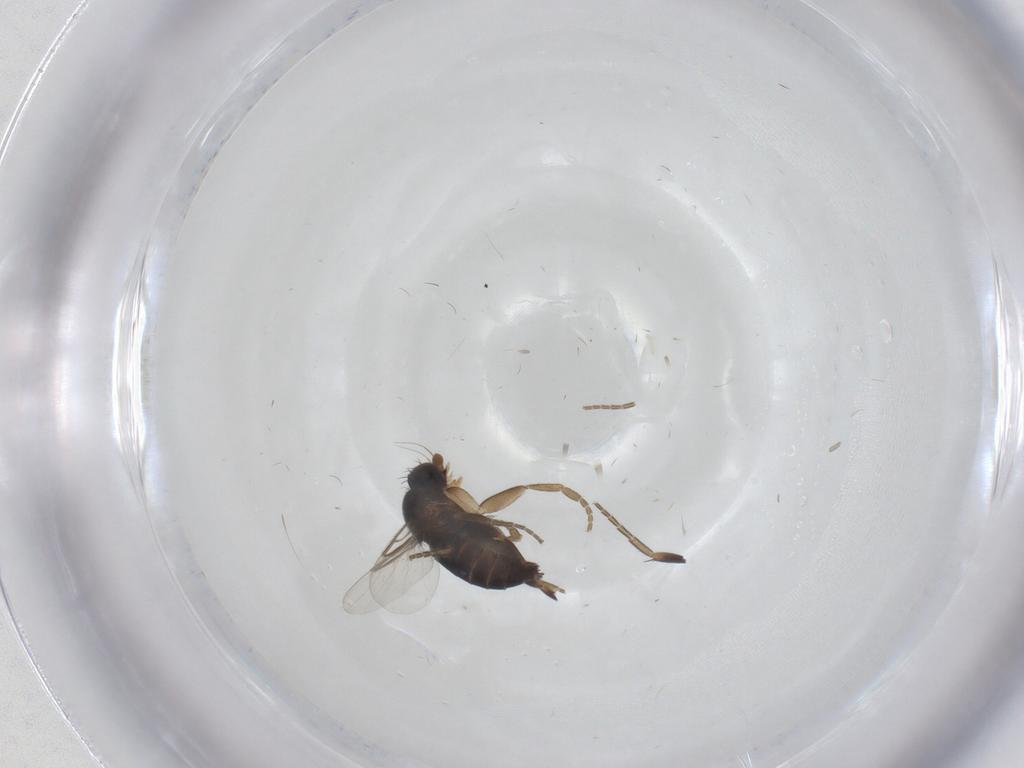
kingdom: Animalia
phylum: Arthropoda
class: Insecta
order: Diptera
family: Phoridae
